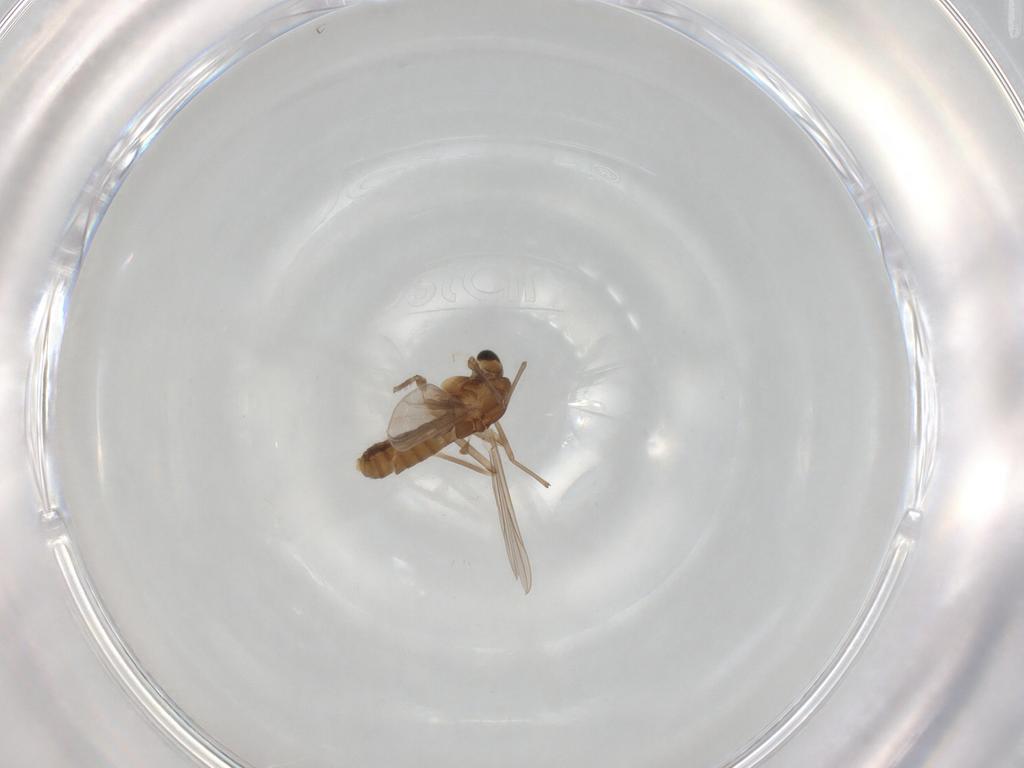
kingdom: Animalia
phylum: Arthropoda
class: Insecta
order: Diptera
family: Chironomidae
